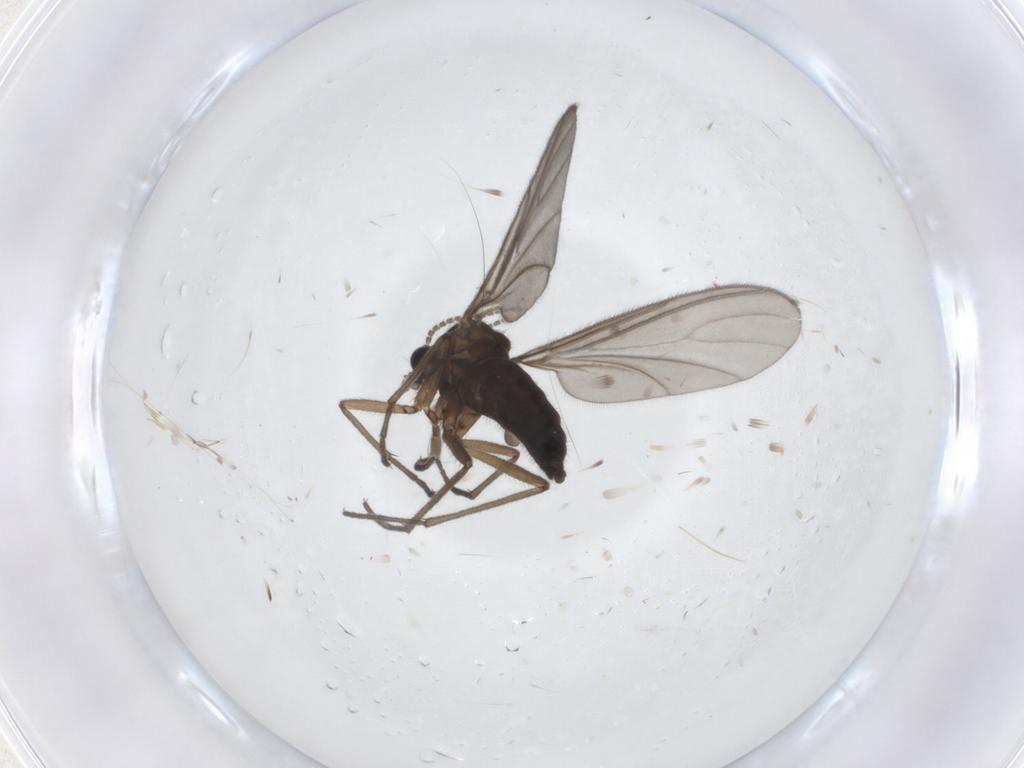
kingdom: Animalia
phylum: Arthropoda
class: Insecta
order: Diptera
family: Sciaridae
